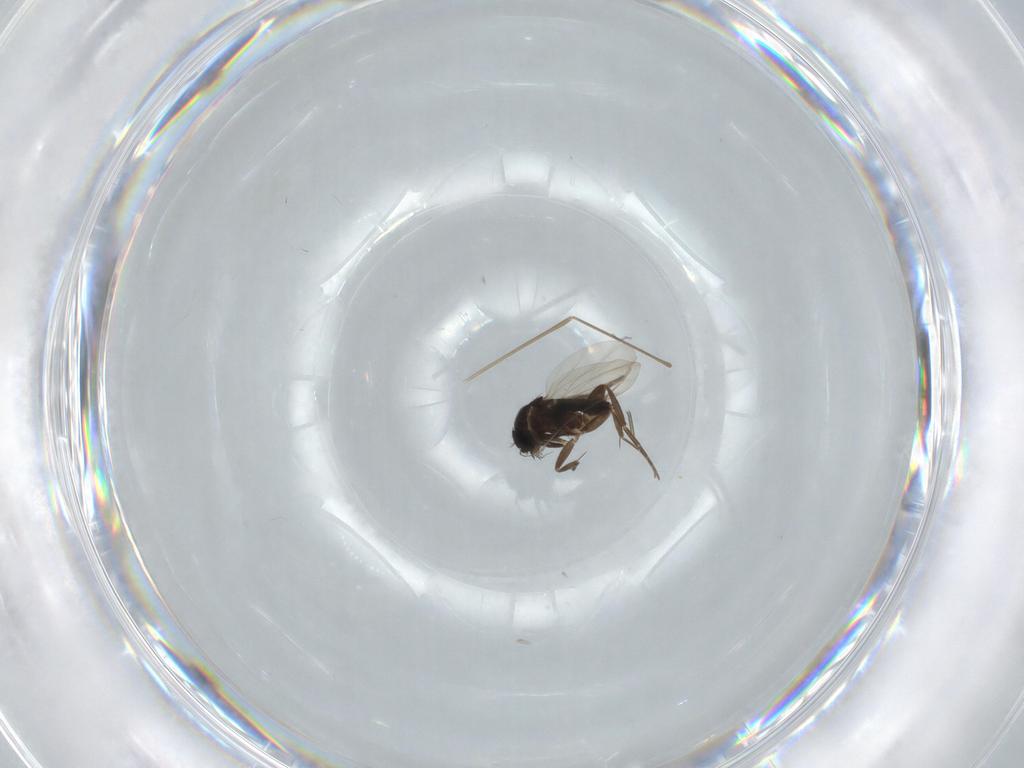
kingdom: Animalia
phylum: Arthropoda
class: Insecta
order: Diptera
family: Phoridae
